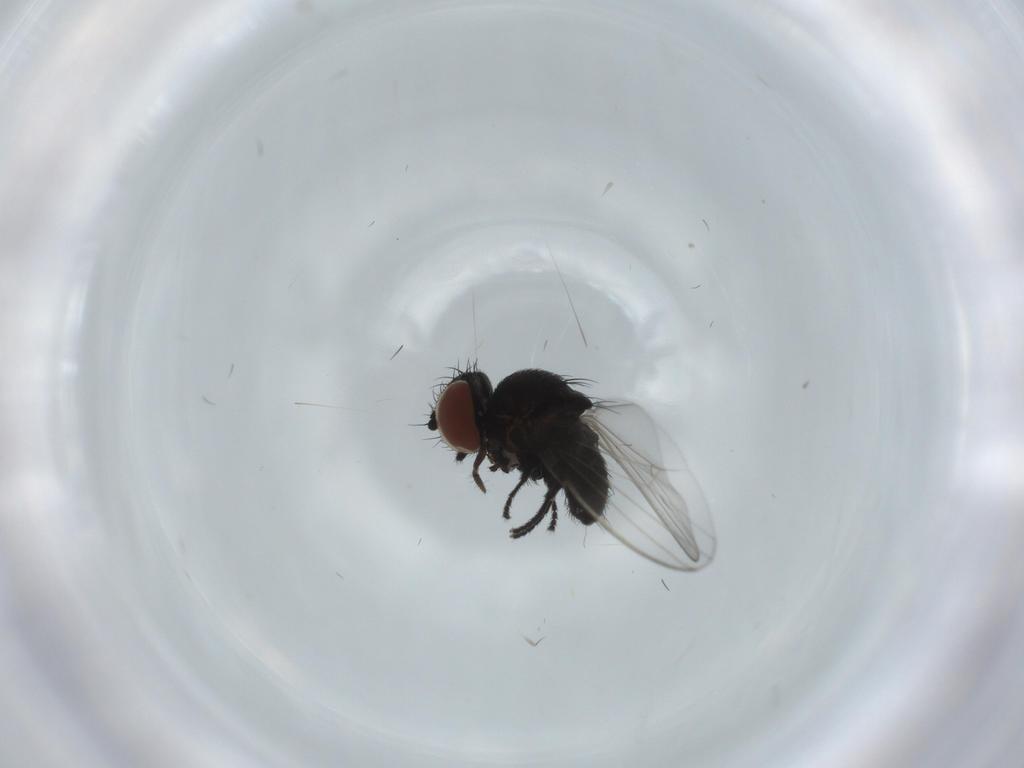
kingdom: Animalia
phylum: Arthropoda
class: Insecta
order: Diptera
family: Milichiidae
